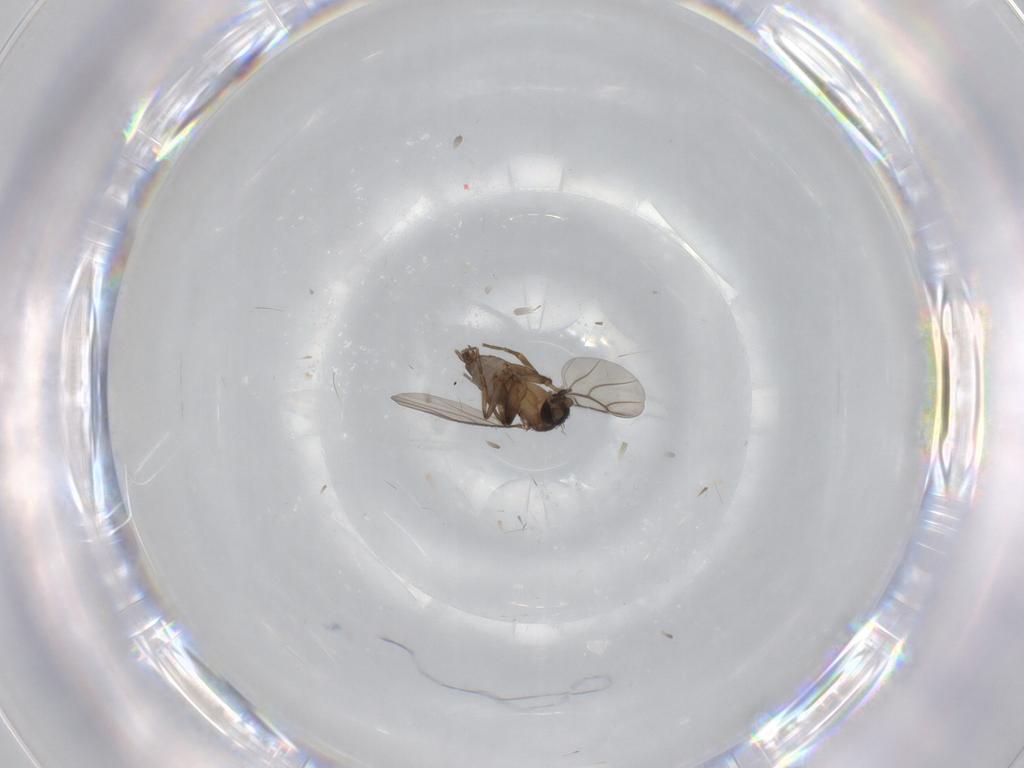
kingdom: Animalia
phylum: Arthropoda
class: Insecta
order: Diptera
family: Phoridae
